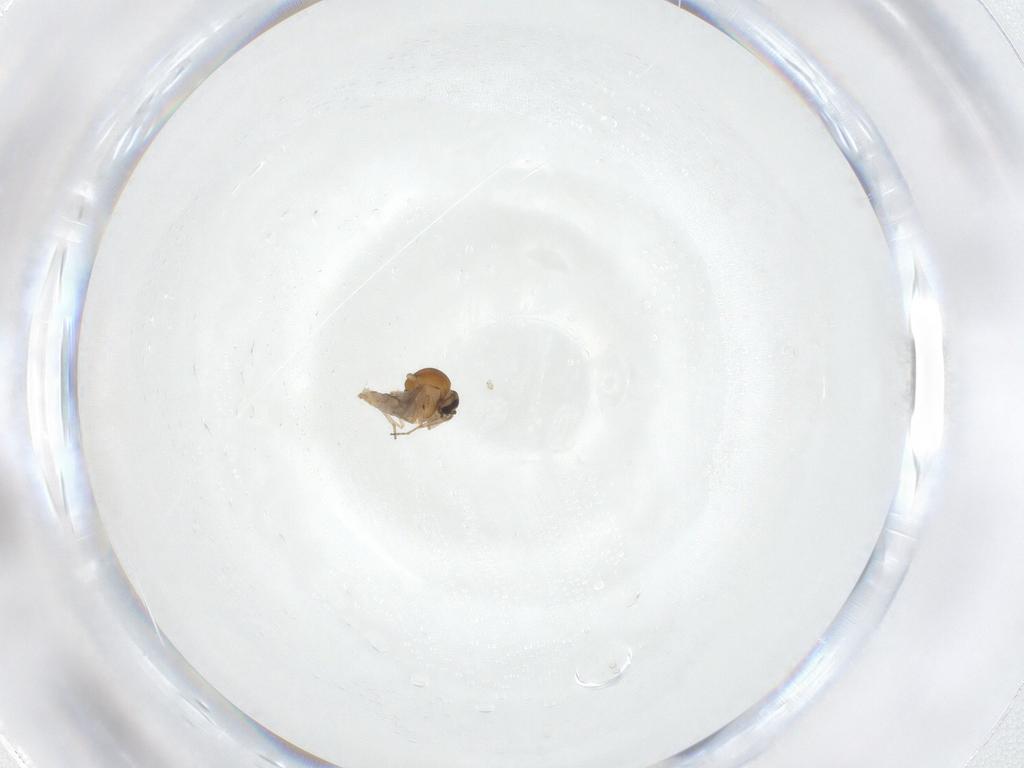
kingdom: Animalia
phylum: Arthropoda
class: Insecta
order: Diptera
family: Ceratopogonidae
